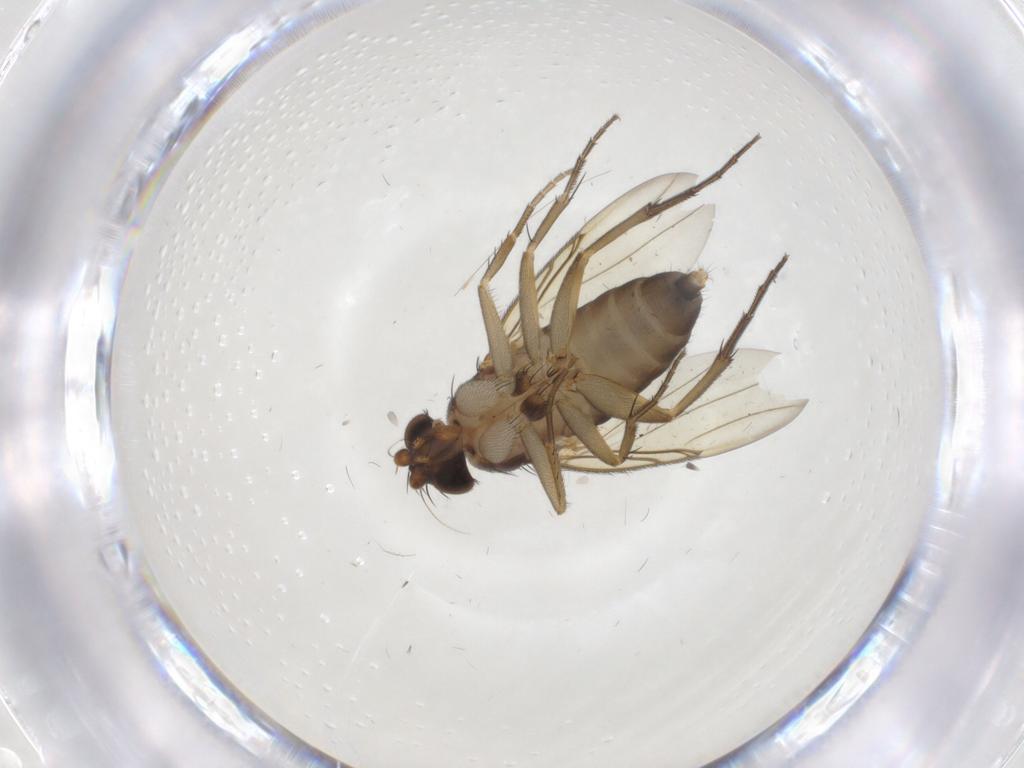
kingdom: Animalia
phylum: Arthropoda
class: Insecta
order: Diptera
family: Phoridae
